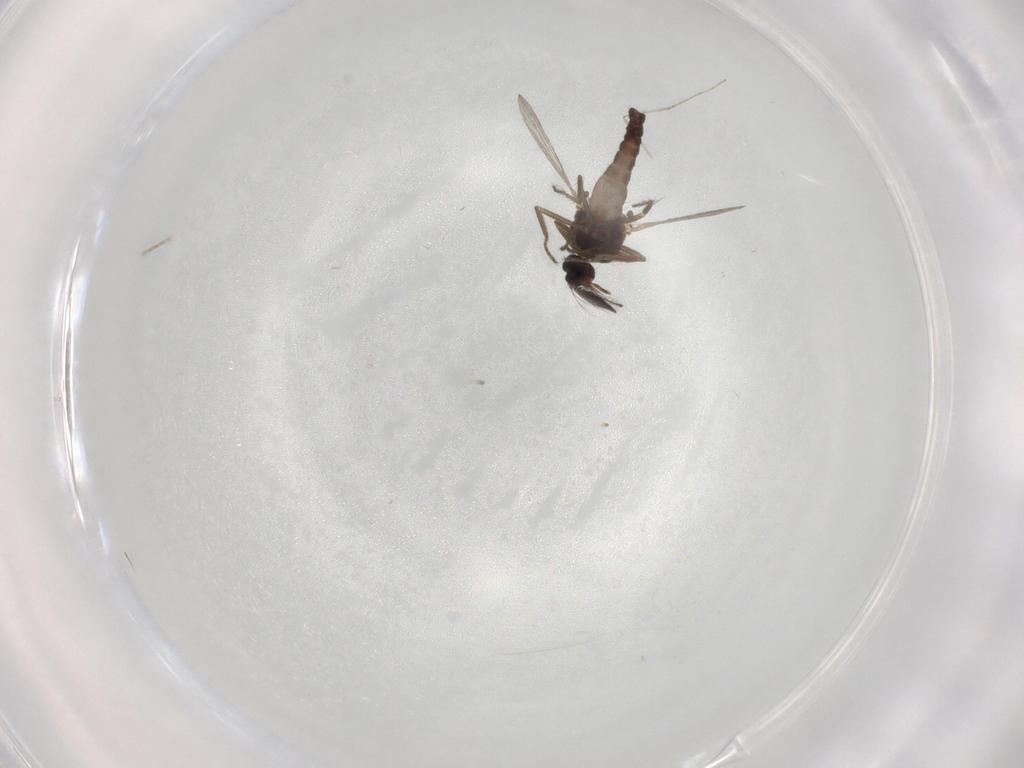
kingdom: Animalia
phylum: Arthropoda
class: Insecta
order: Diptera
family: Ceratopogonidae
